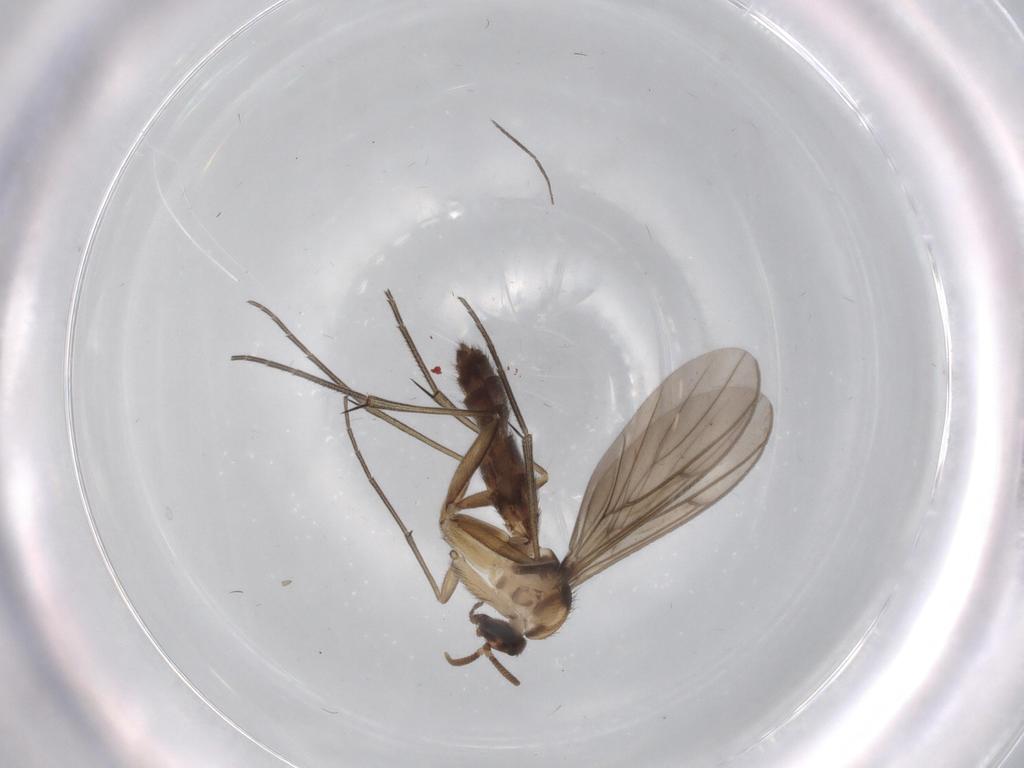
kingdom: Animalia
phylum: Arthropoda
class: Insecta
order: Diptera
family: Keroplatidae
